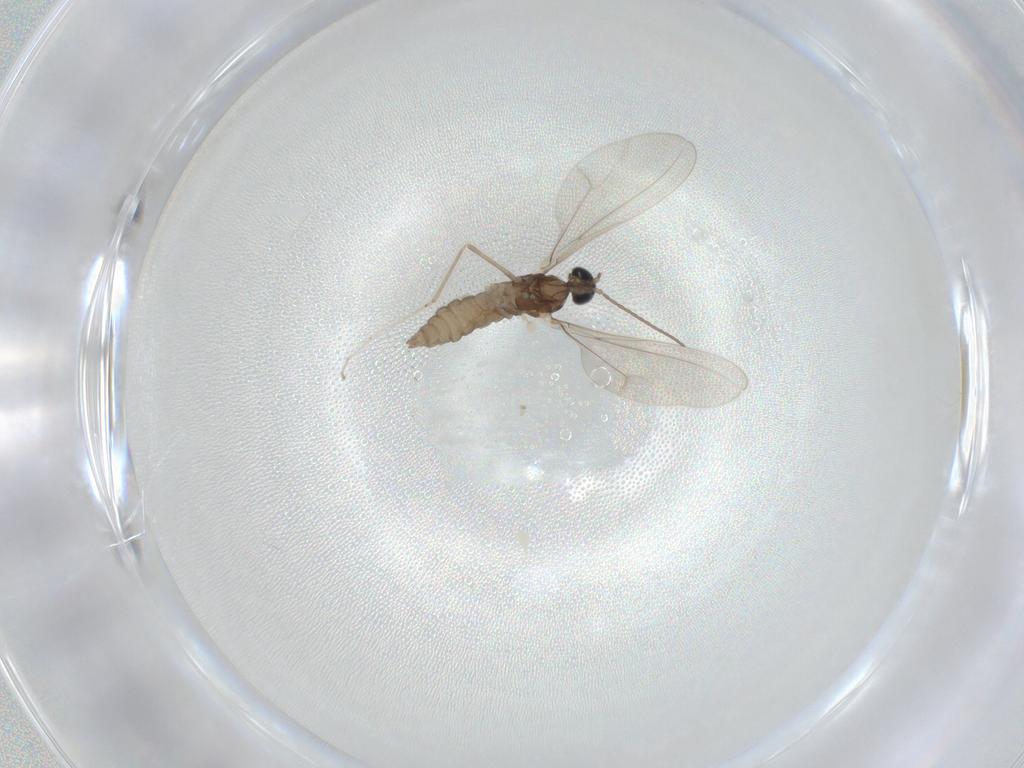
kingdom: Animalia
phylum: Arthropoda
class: Insecta
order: Diptera
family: Cecidomyiidae
